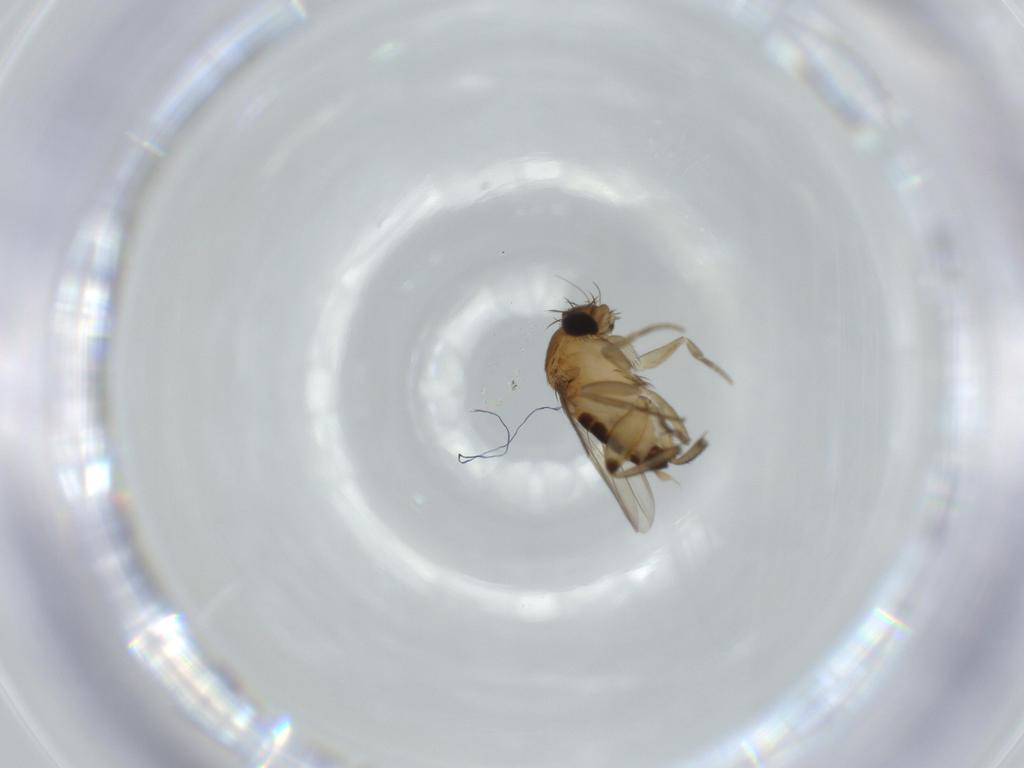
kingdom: Animalia
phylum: Arthropoda
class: Insecta
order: Diptera
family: Phoridae
